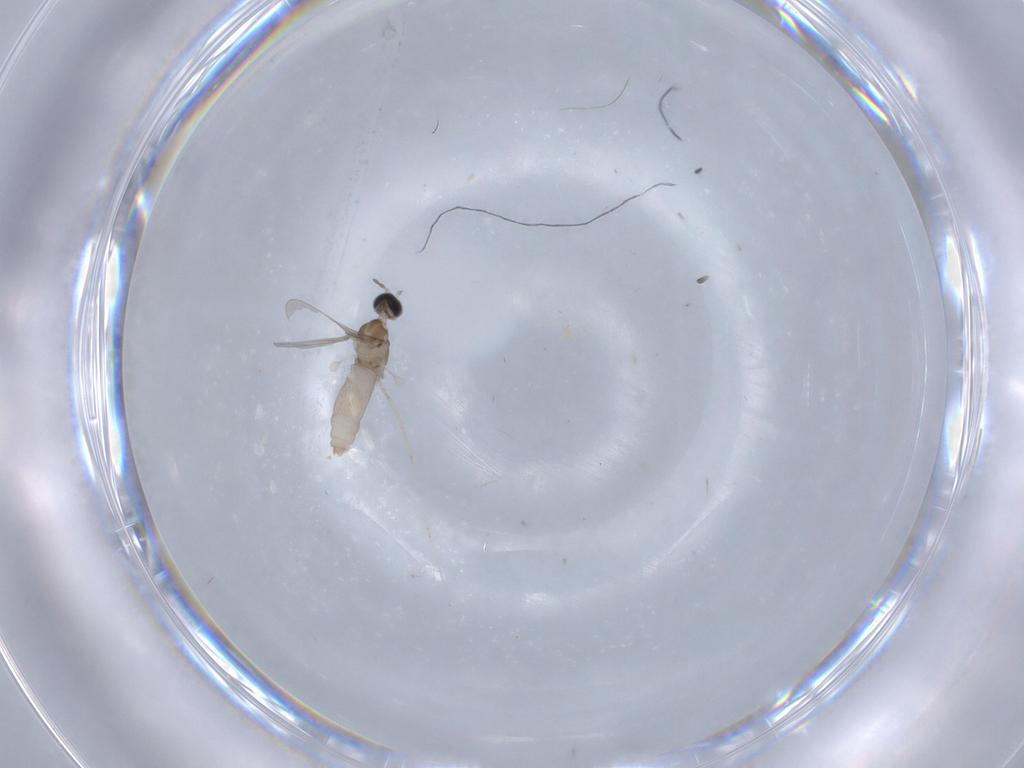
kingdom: Animalia
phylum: Arthropoda
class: Insecta
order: Diptera
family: Cecidomyiidae
